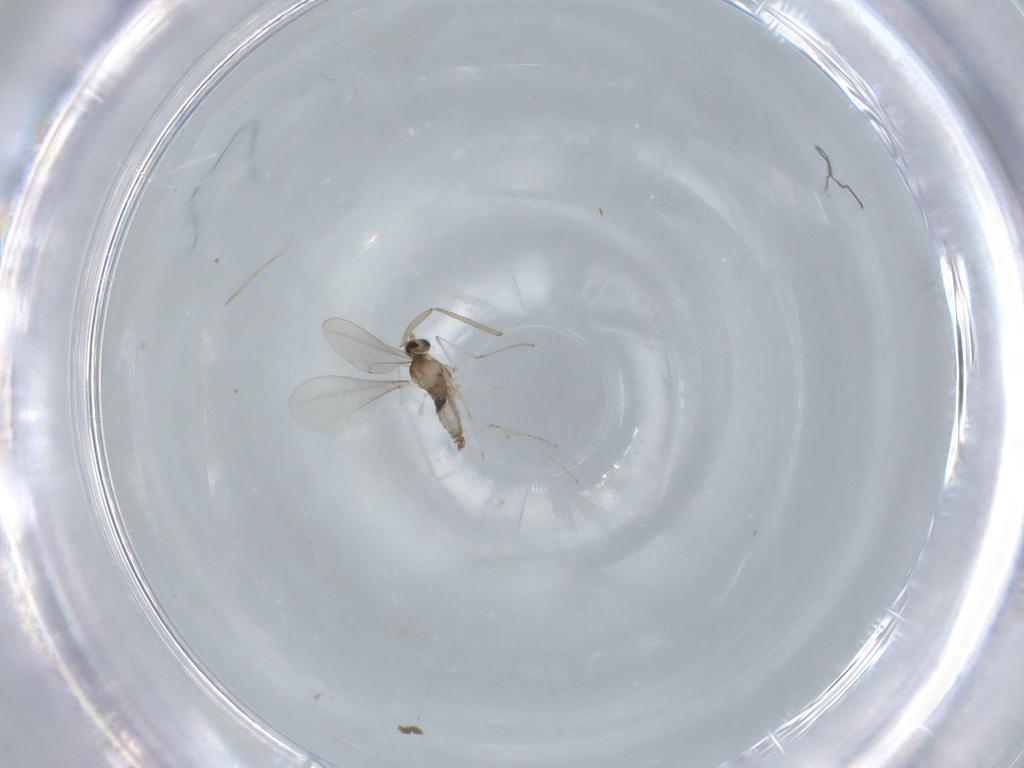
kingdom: Animalia
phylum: Arthropoda
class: Insecta
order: Diptera
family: Cecidomyiidae
